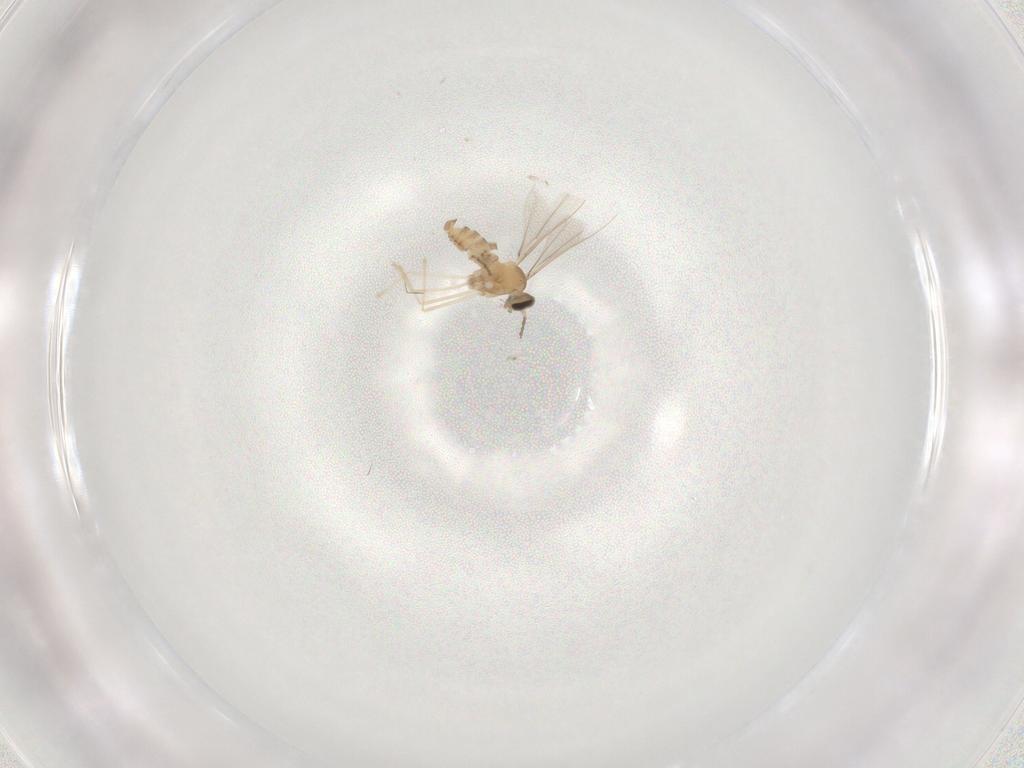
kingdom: Animalia
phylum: Arthropoda
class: Insecta
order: Diptera
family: Cecidomyiidae
